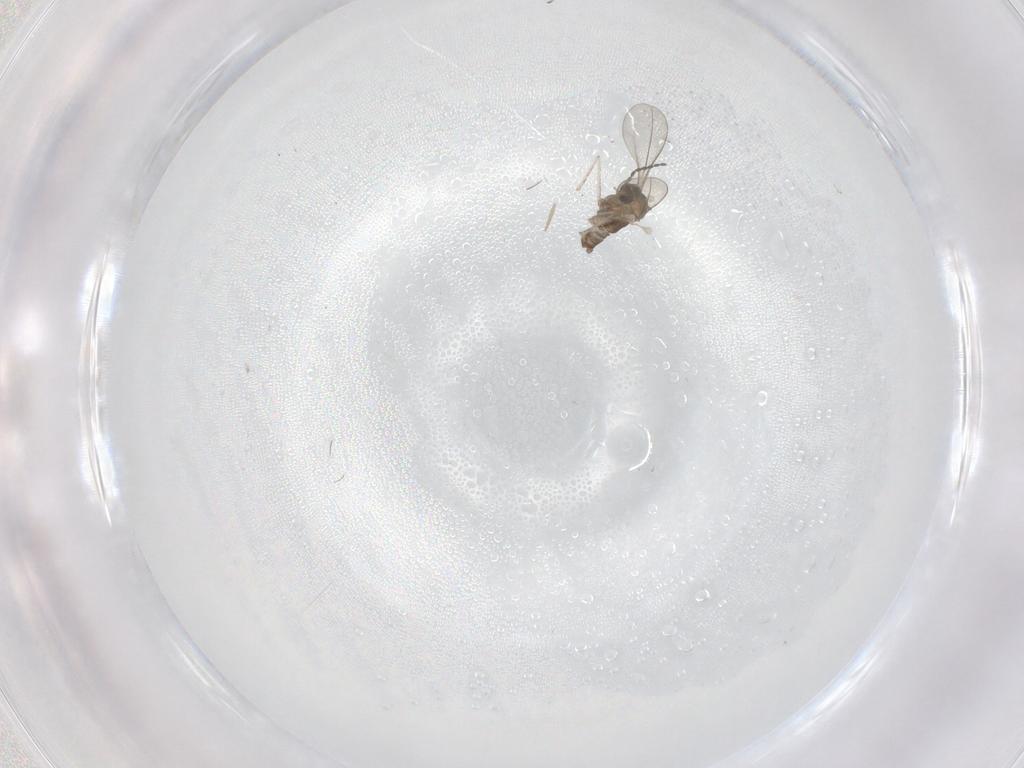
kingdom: Animalia
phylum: Arthropoda
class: Insecta
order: Diptera
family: Cecidomyiidae
